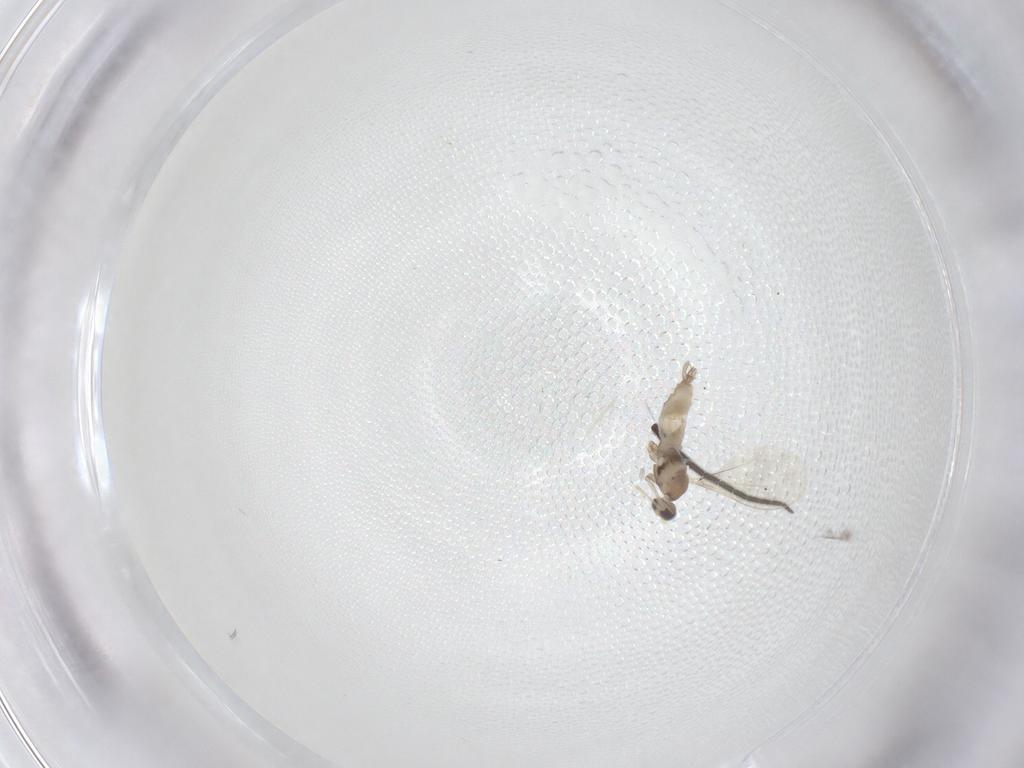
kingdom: Animalia
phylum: Arthropoda
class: Insecta
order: Diptera
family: Cecidomyiidae
